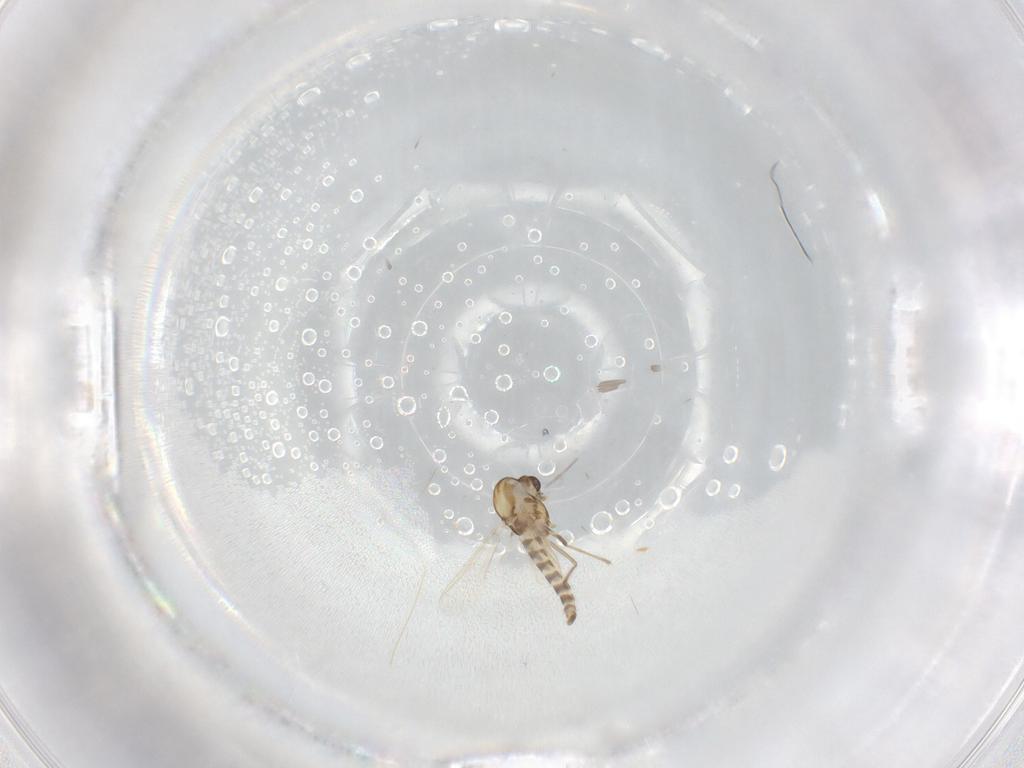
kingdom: Animalia
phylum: Arthropoda
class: Insecta
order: Diptera
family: Chironomidae
